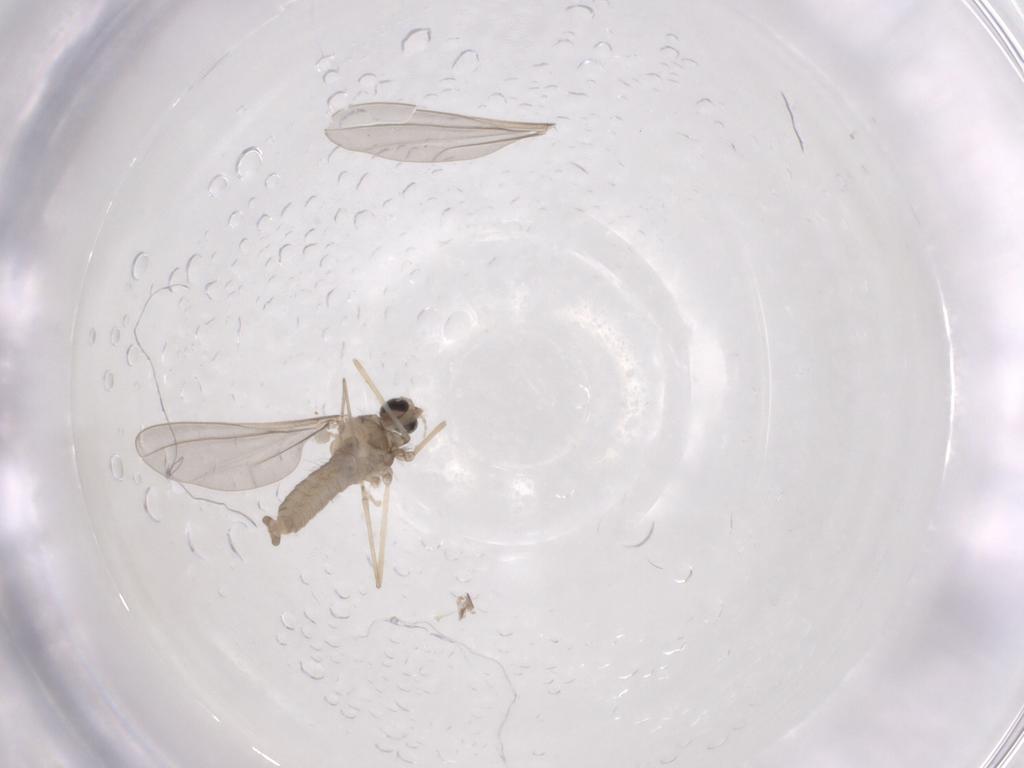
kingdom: Animalia
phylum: Arthropoda
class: Insecta
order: Diptera
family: Cecidomyiidae
